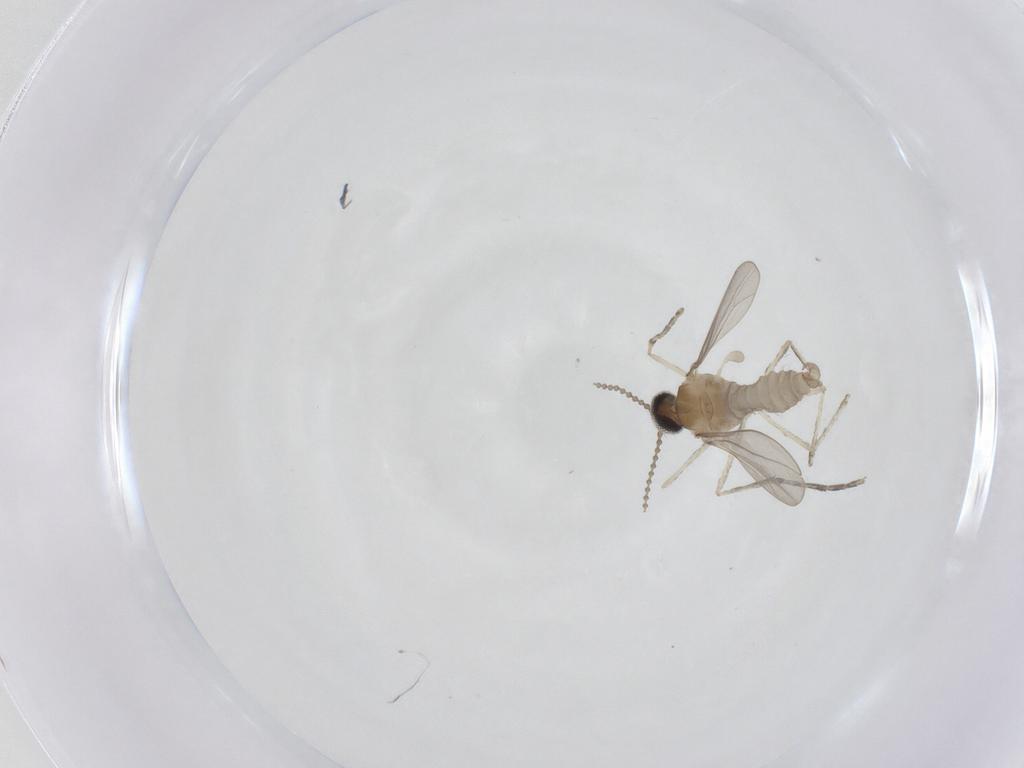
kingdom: Animalia
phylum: Arthropoda
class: Insecta
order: Diptera
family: Cecidomyiidae
